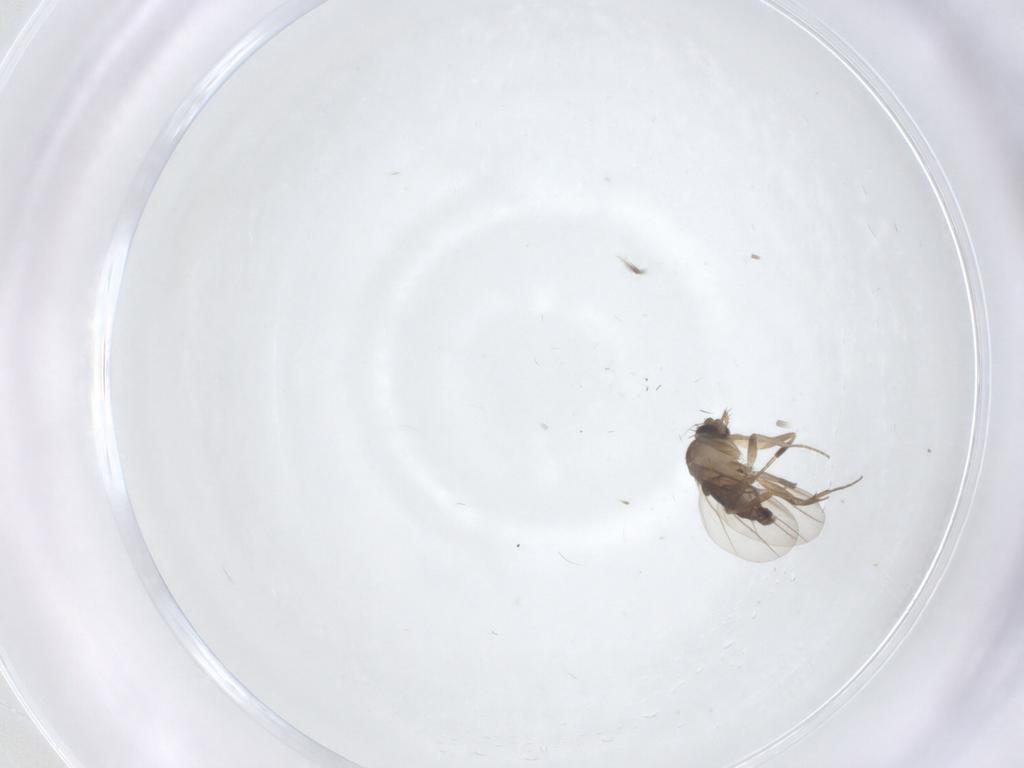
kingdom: Animalia
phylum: Arthropoda
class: Insecta
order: Diptera
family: Phoridae
